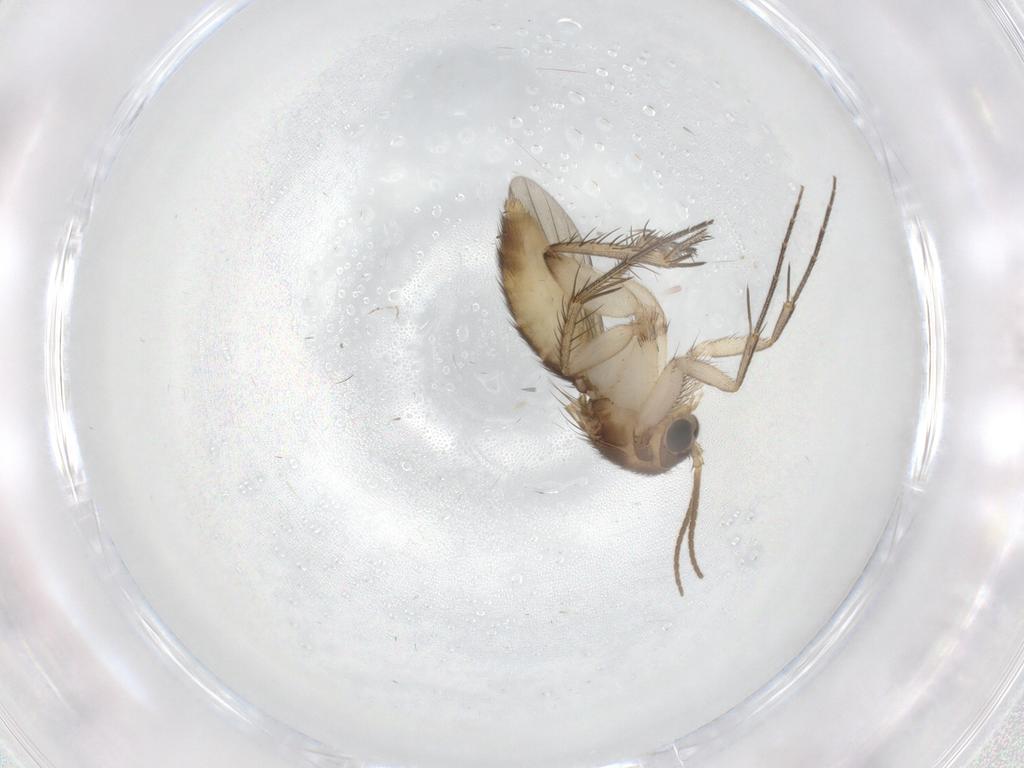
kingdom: Animalia
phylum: Arthropoda
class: Insecta
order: Diptera
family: Mycetophilidae
